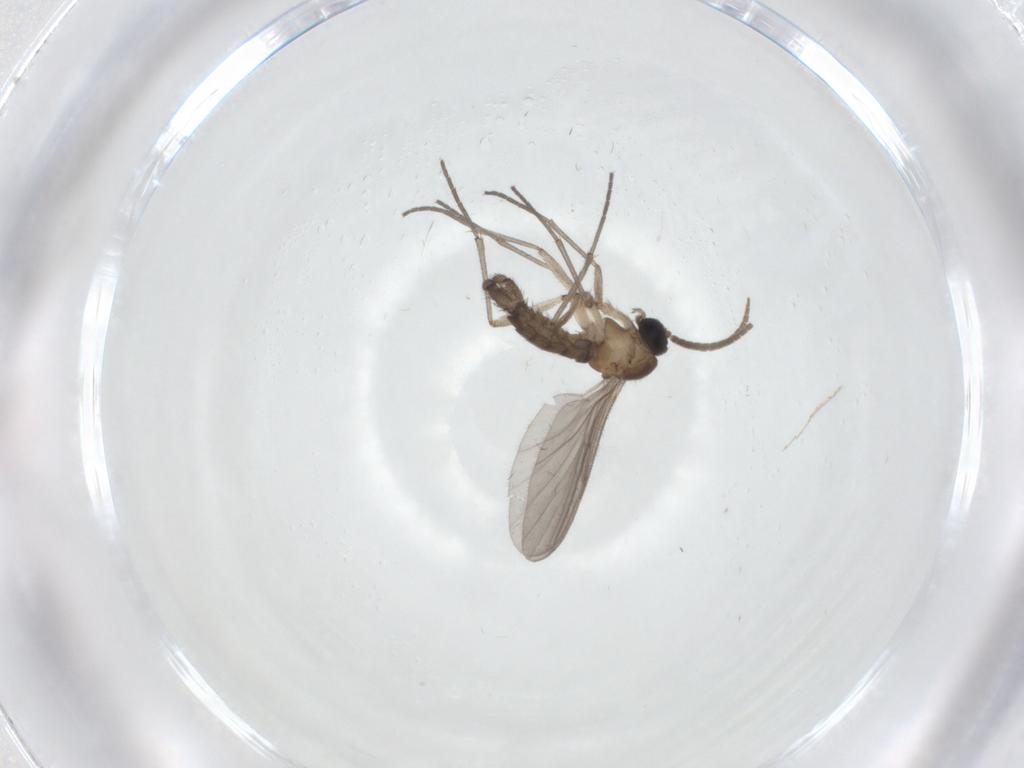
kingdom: Animalia
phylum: Arthropoda
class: Insecta
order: Diptera
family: Phoridae
